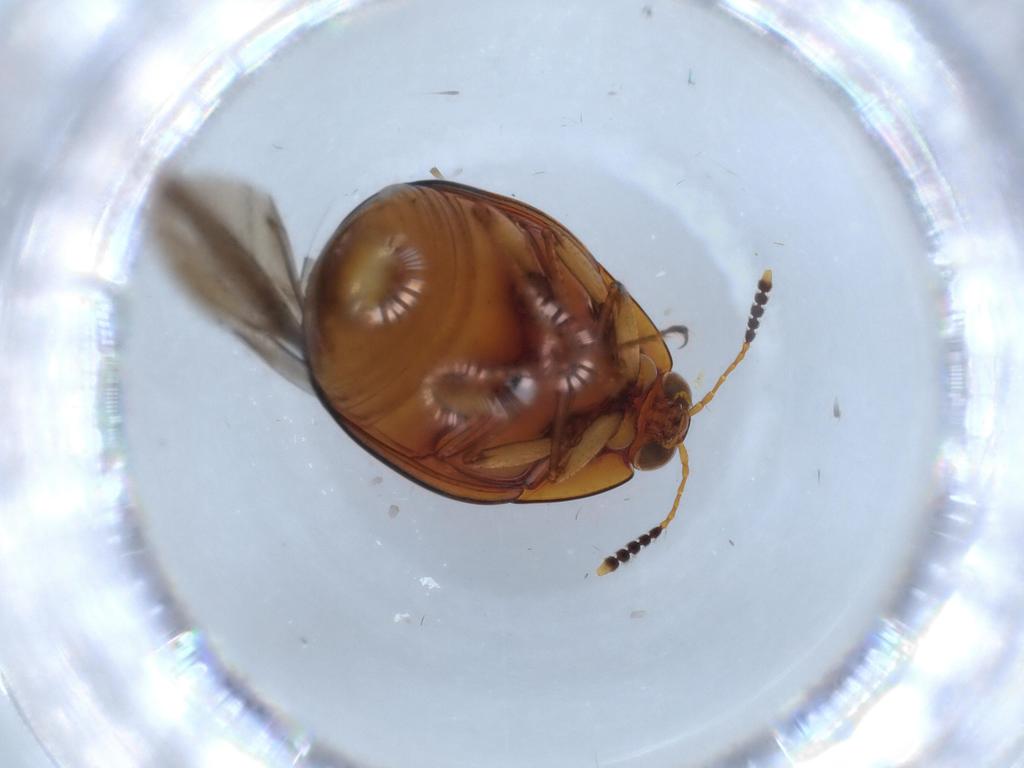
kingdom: Animalia
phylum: Arthropoda
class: Insecta
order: Coleoptera
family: Staphylinidae
